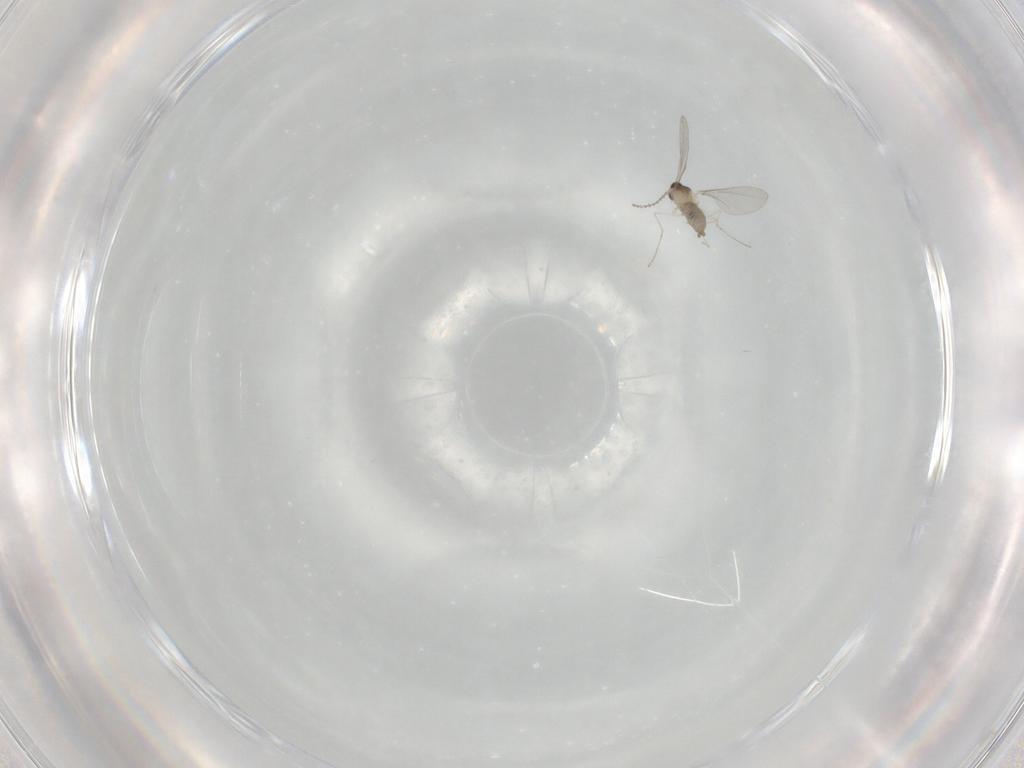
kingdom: Animalia
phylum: Arthropoda
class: Insecta
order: Diptera
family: Cecidomyiidae
